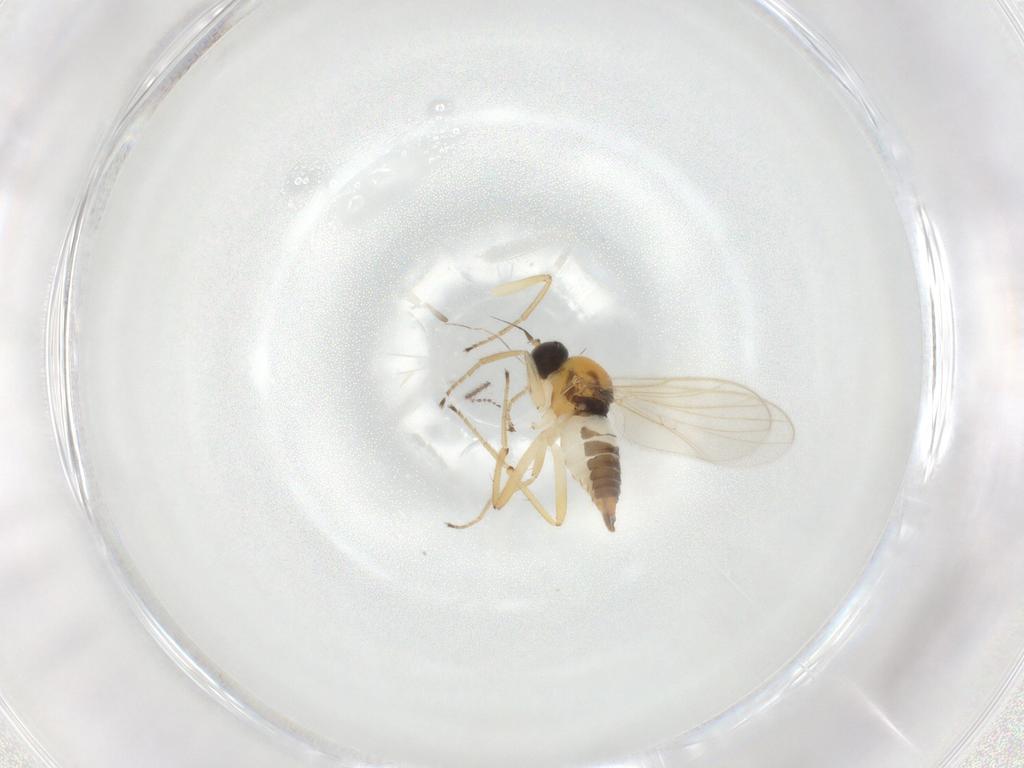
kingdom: Animalia
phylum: Arthropoda
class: Insecta
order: Diptera
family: Hybotidae
